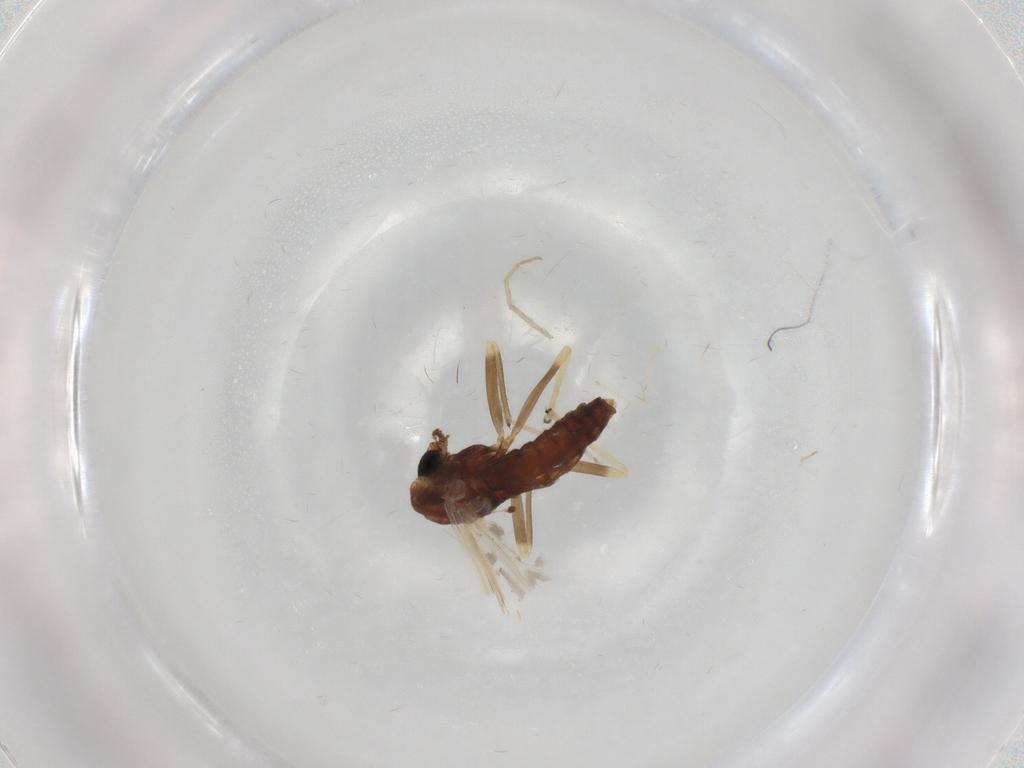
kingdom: Animalia
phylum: Arthropoda
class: Insecta
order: Diptera
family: Chironomidae
